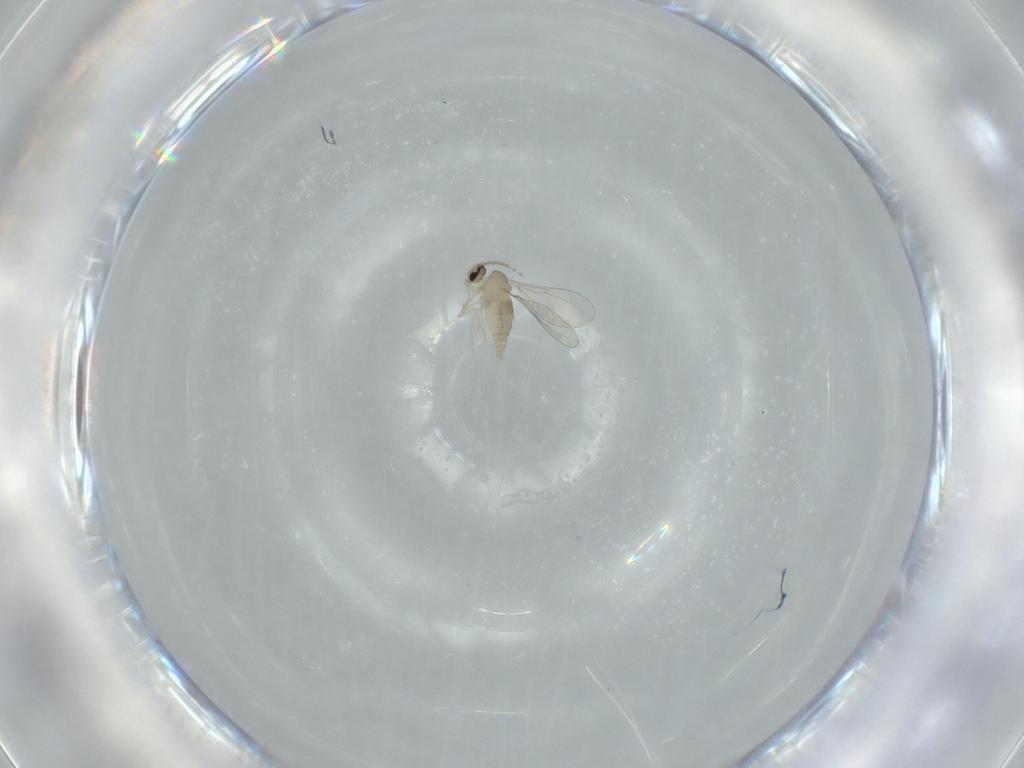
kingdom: Animalia
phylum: Arthropoda
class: Insecta
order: Diptera
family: Cecidomyiidae
